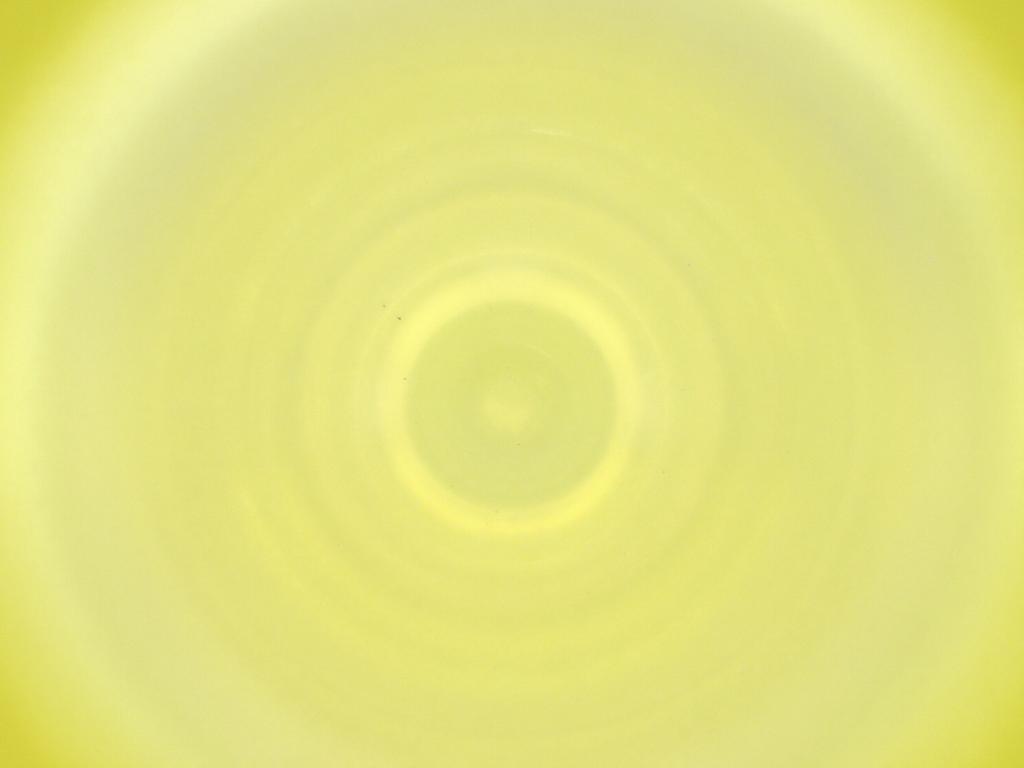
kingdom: Animalia
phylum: Arthropoda
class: Insecta
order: Diptera
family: Cecidomyiidae
